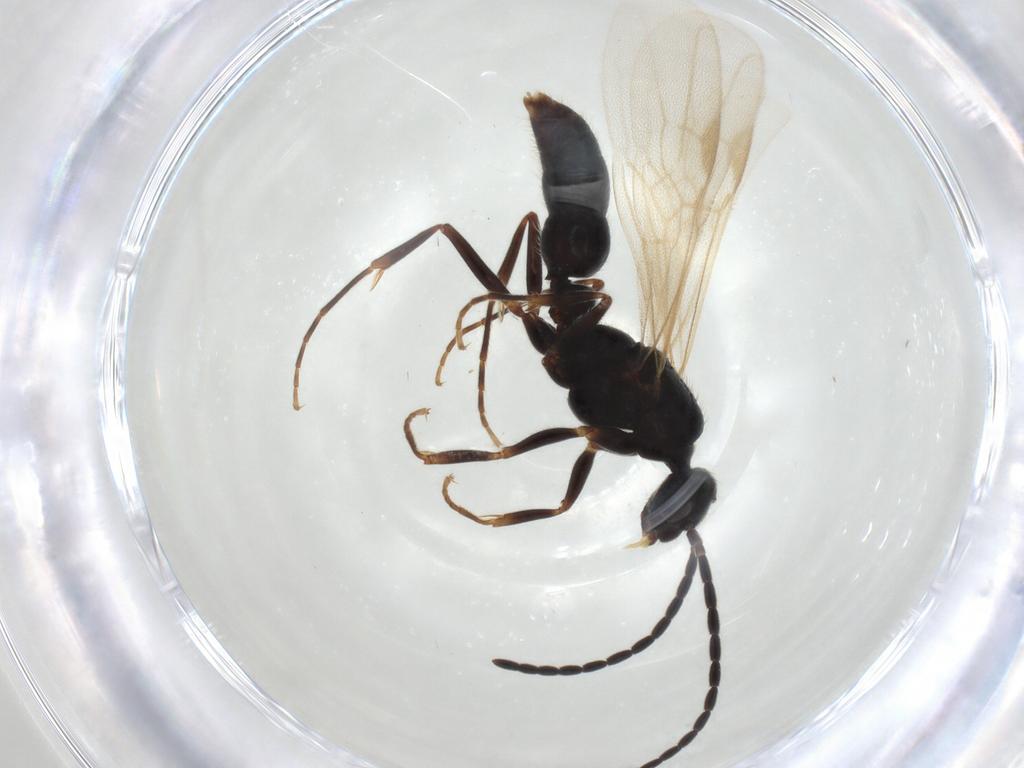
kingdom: Animalia
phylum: Arthropoda
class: Insecta
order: Hymenoptera
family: Formicidae
